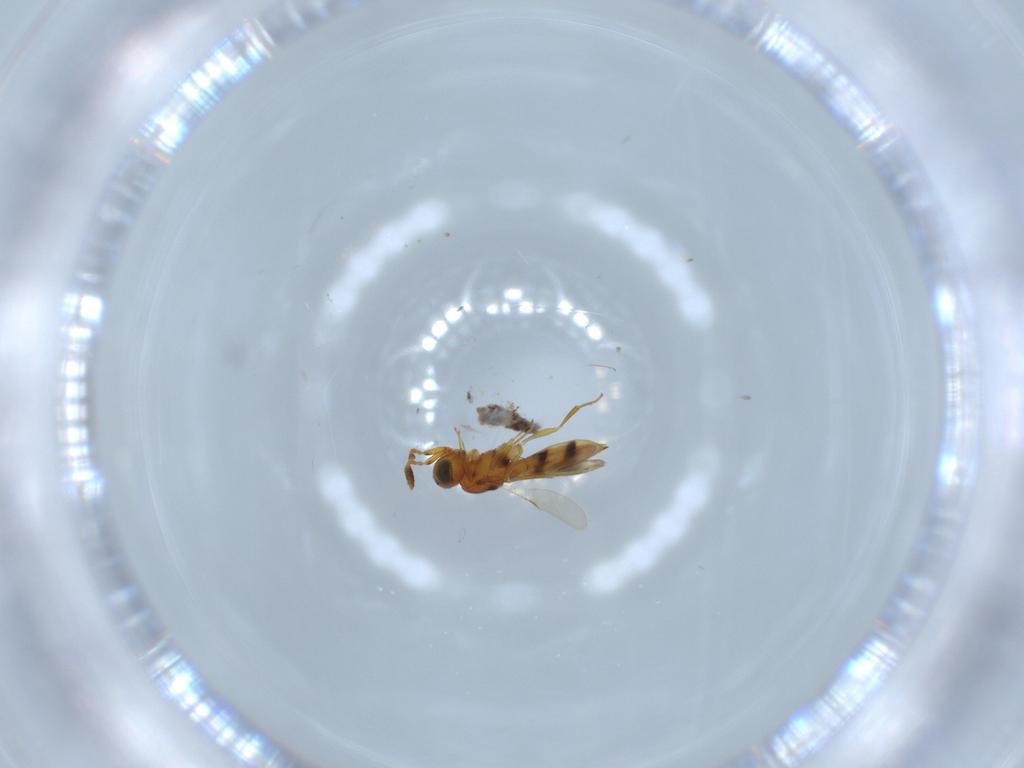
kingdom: Animalia
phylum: Arthropoda
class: Insecta
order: Hymenoptera
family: Scelionidae
